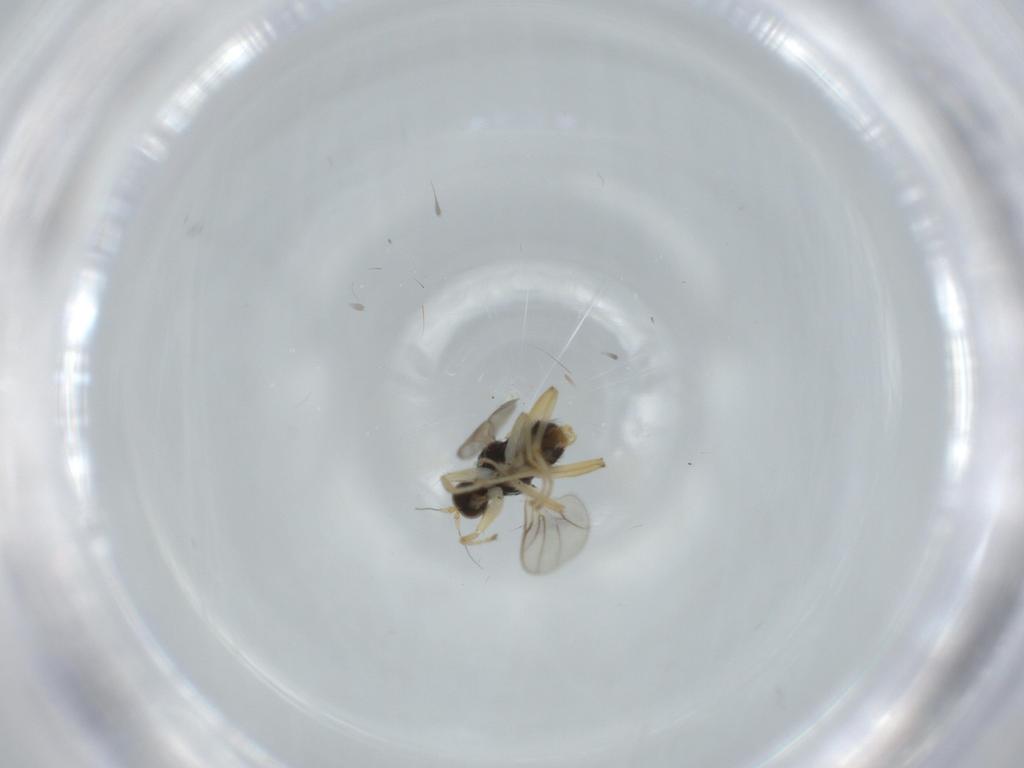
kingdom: Animalia
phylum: Arthropoda
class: Insecta
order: Diptera
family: Hybotidae
